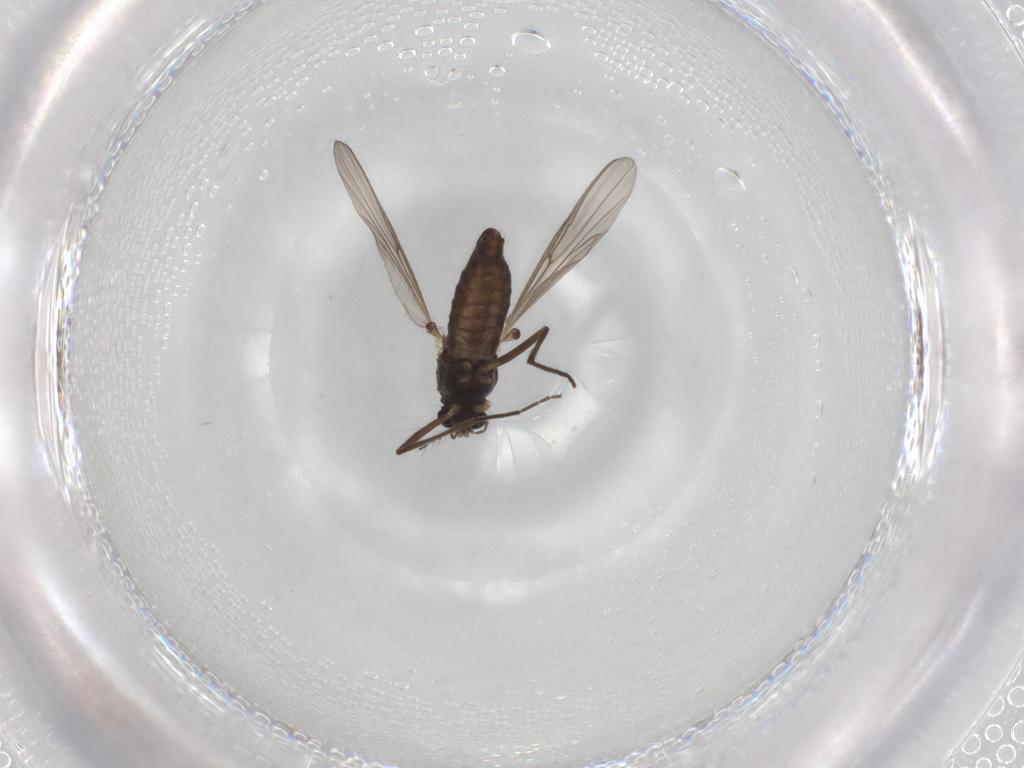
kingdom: Animalia
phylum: Arthropoda
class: Insecta
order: Diptera
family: Chironomidae
